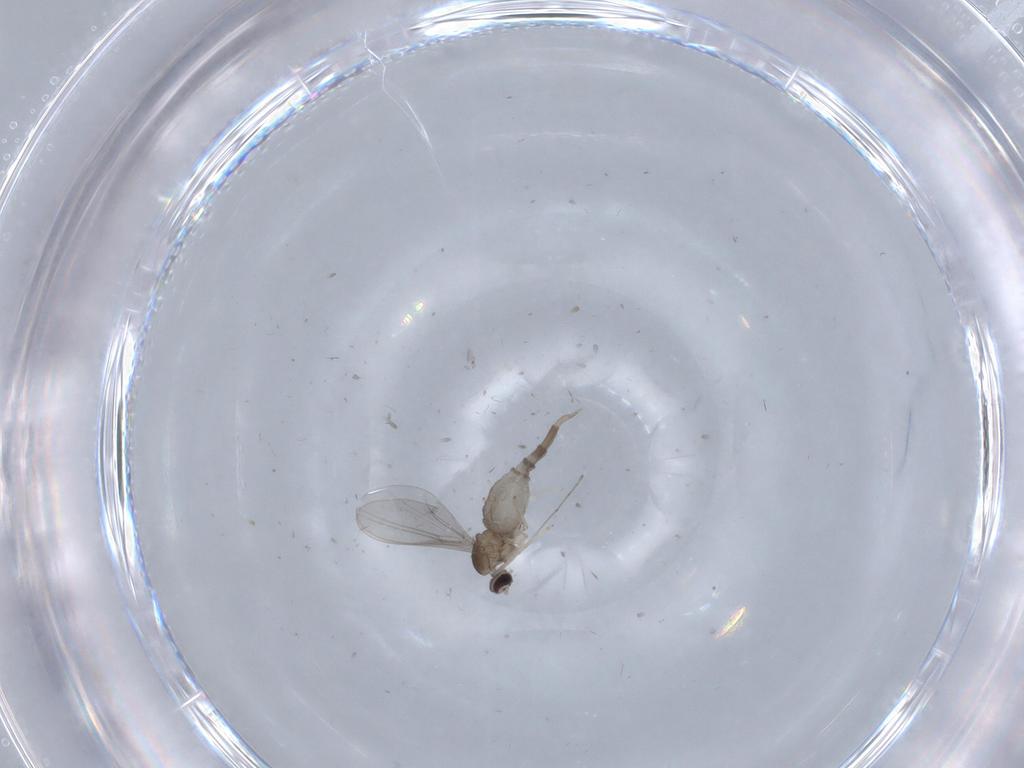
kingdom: Animalia
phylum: Arthropoda
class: Insecta
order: Diptera
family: Cecidomyiidae
